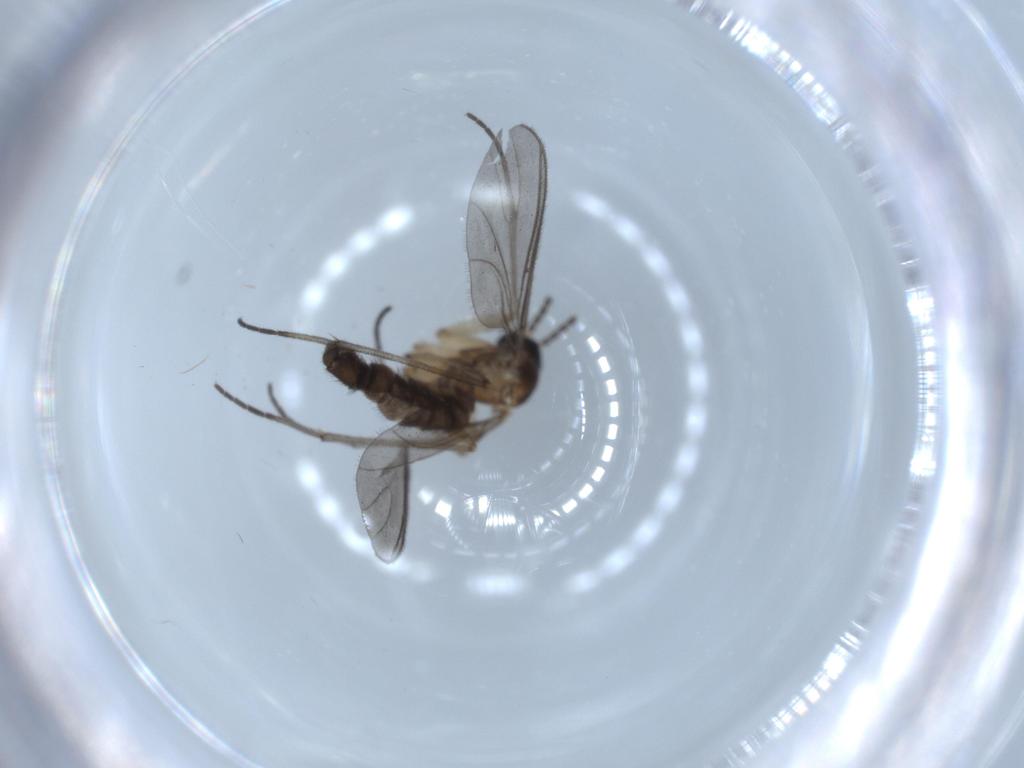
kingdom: Animalia
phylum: Arthropoda
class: Insecta
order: Diptera
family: Sciaridae
